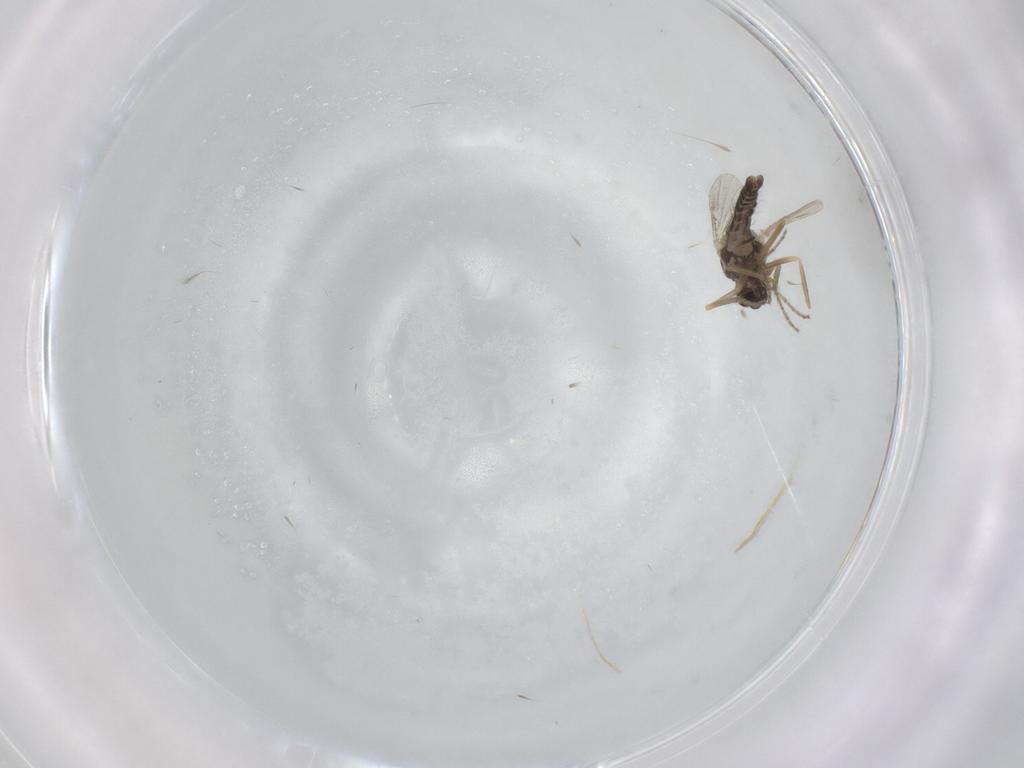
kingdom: Animalia
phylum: Arthropoda
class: Insecta
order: Diptera
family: Ceratopogonidae
